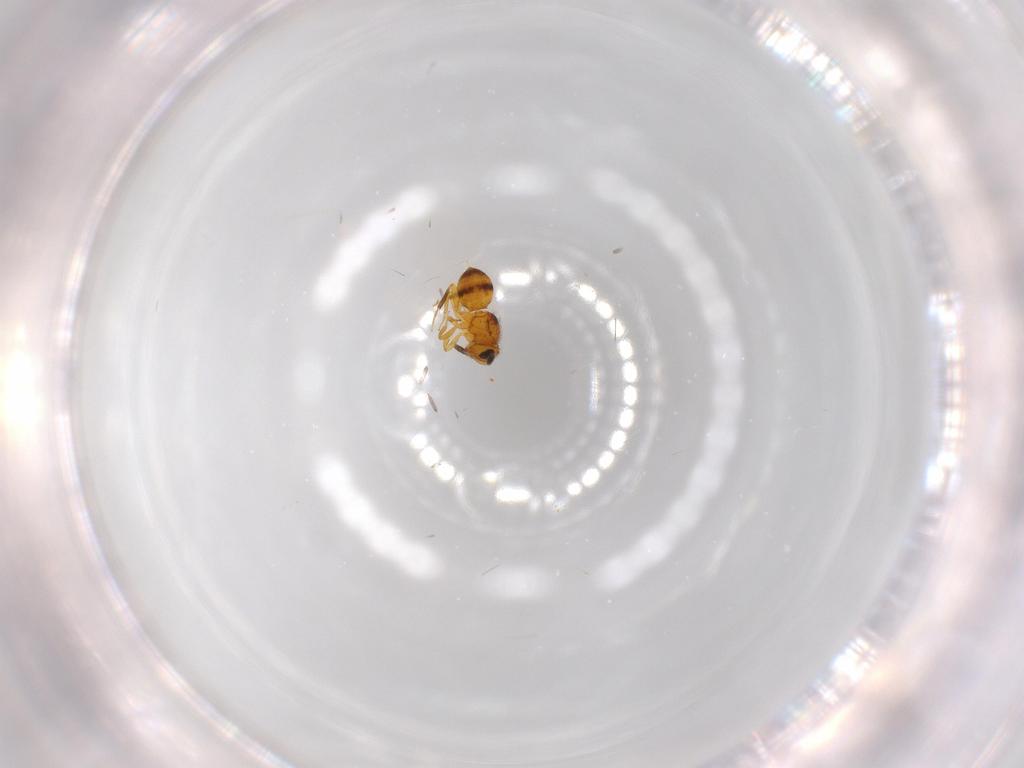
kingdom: Animalia
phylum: Arthropoda
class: Insecta
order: Hymenoptera
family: Scelionidae
